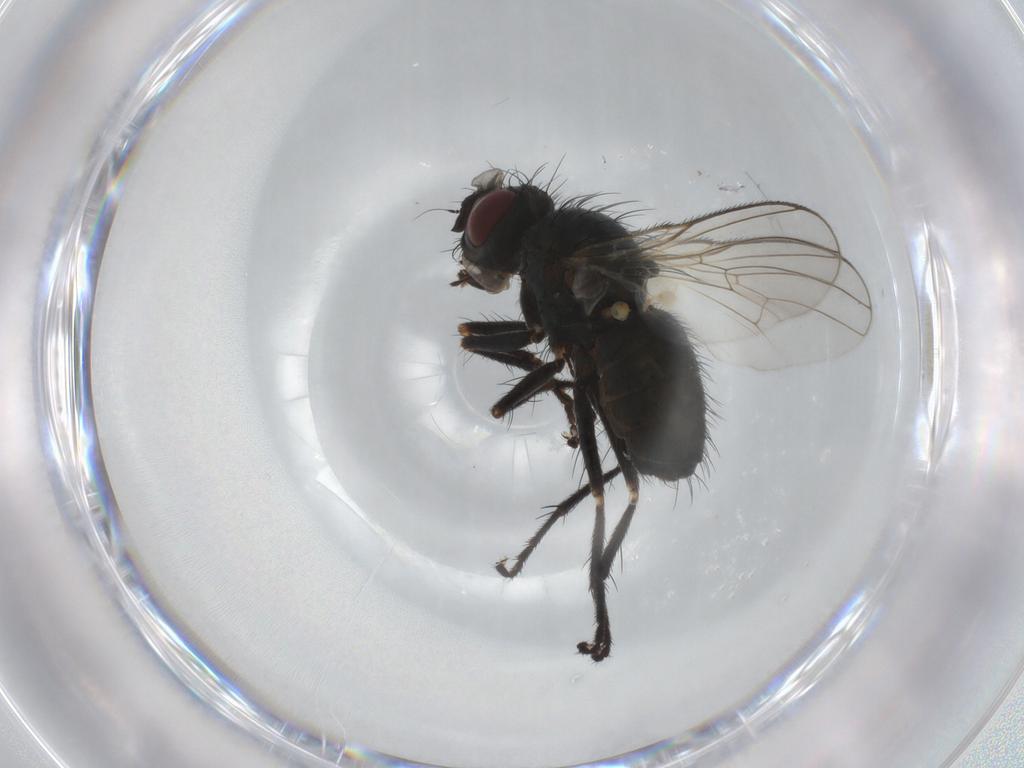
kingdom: Animalia
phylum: Arthropoda
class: Insecta
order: Diptera
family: Muscidae
